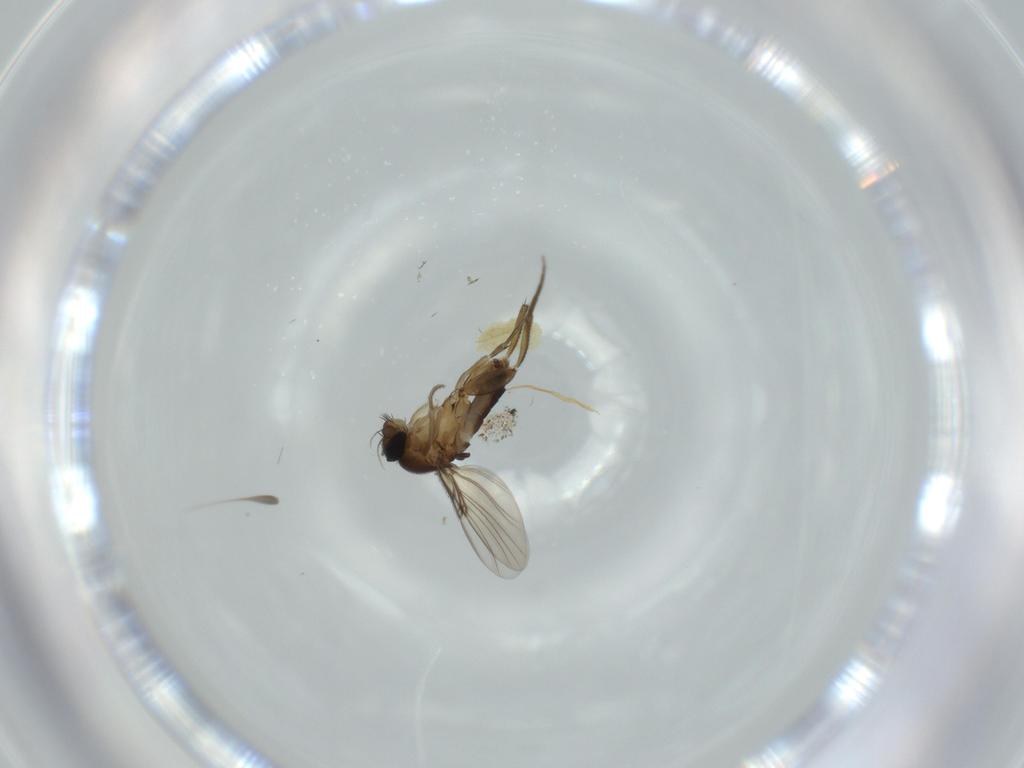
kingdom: Animalia
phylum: Arthropoda
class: Insecta
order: Diptera
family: Phoridae
